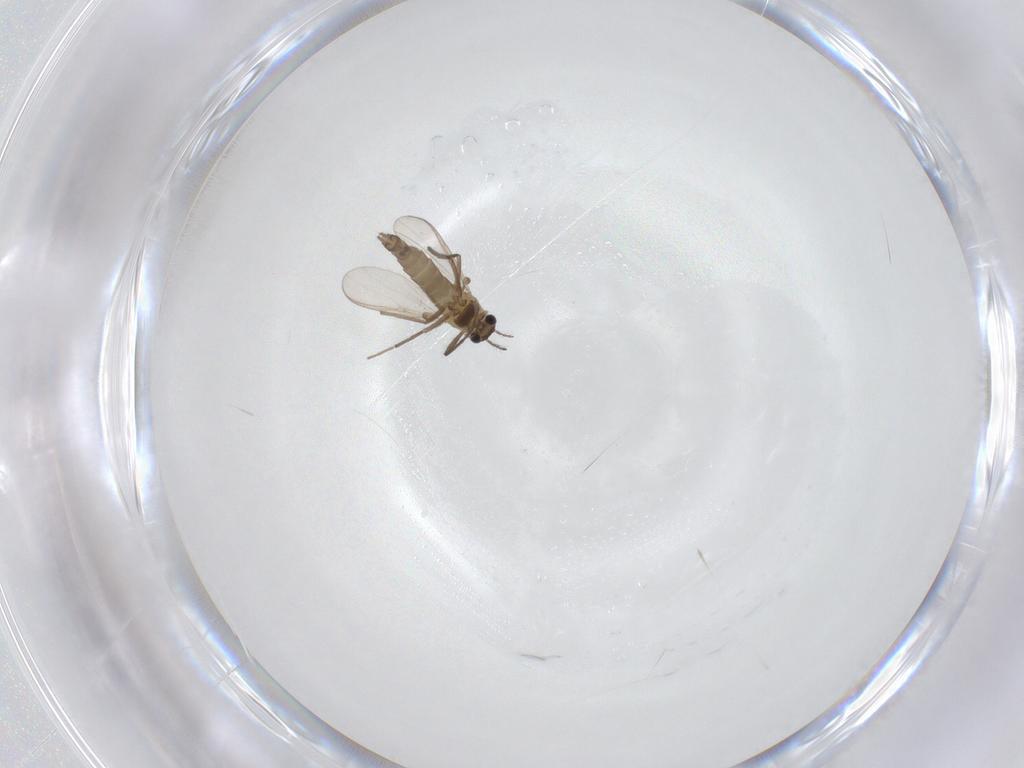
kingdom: Animalia
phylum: Arthropoda
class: Insecta
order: Diptera
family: Chironomidae
